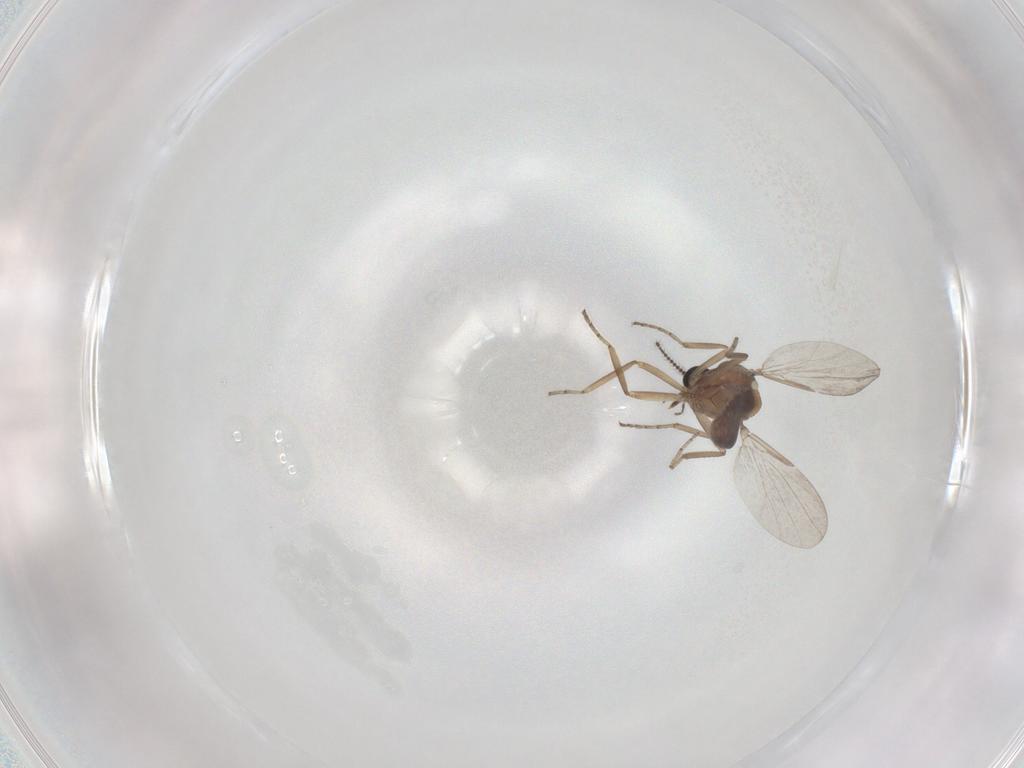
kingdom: Animalia
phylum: Arthropoda
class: Insecta
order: Diptera
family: Ceratopogonidae
